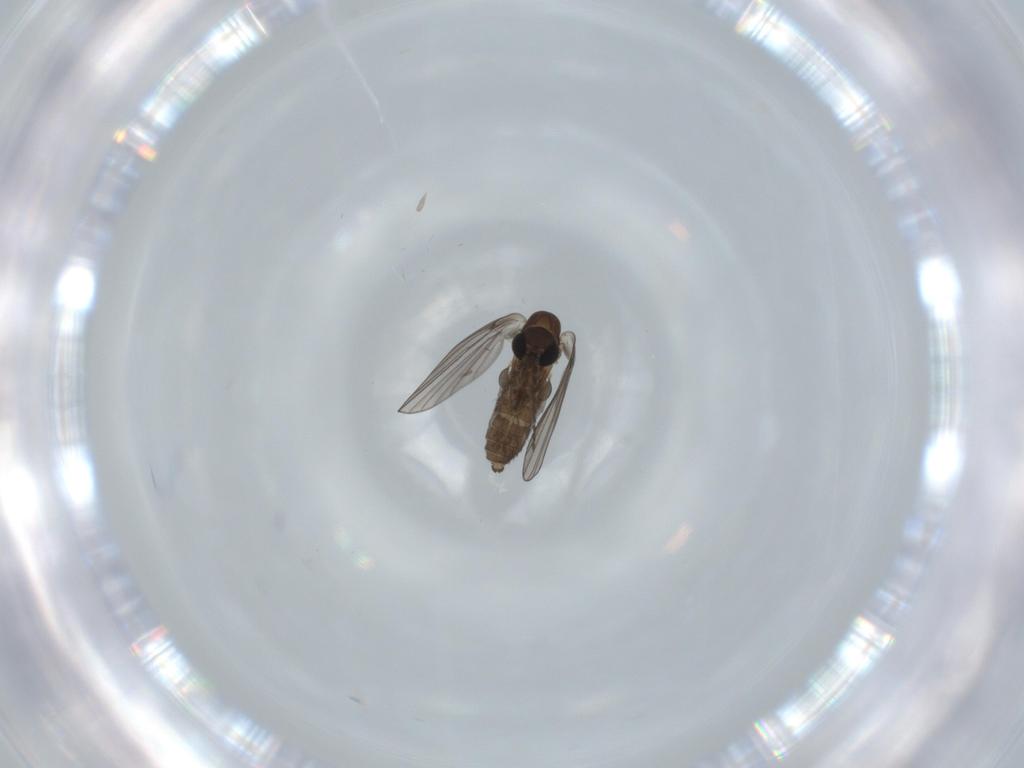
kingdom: Animalia
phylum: Arthropoda
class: Insecta
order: Diptera
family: Psychodidae
